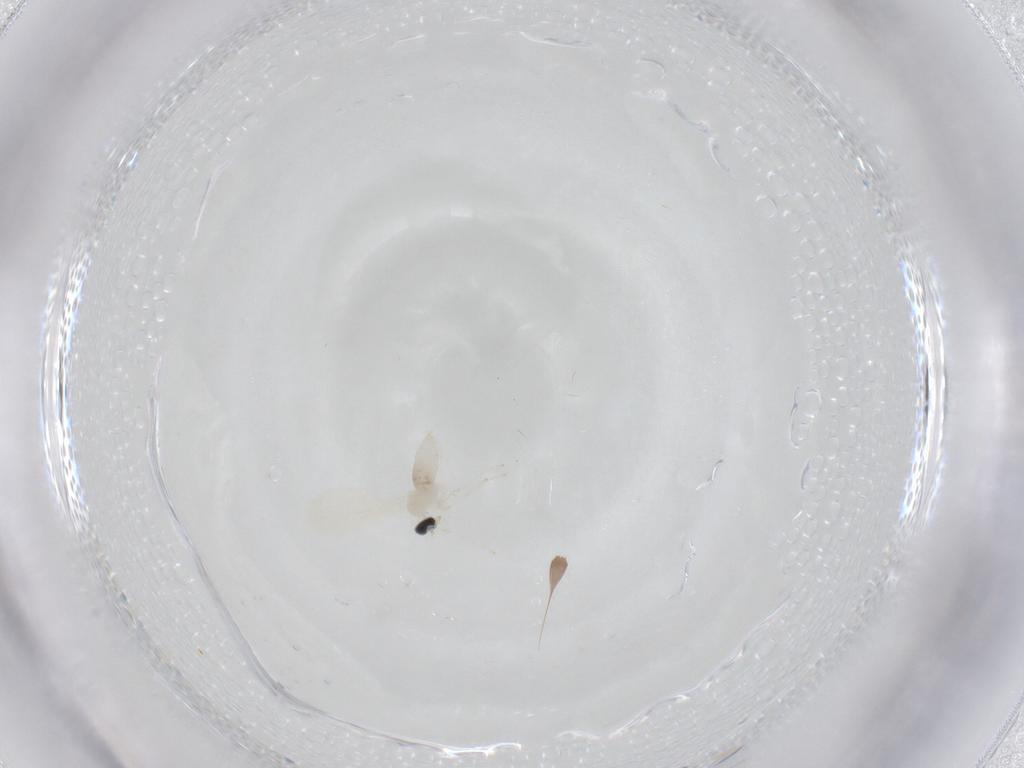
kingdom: Animalia
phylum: Arthropoda
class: Insecta
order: Diptera
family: Cecidomyiidae
